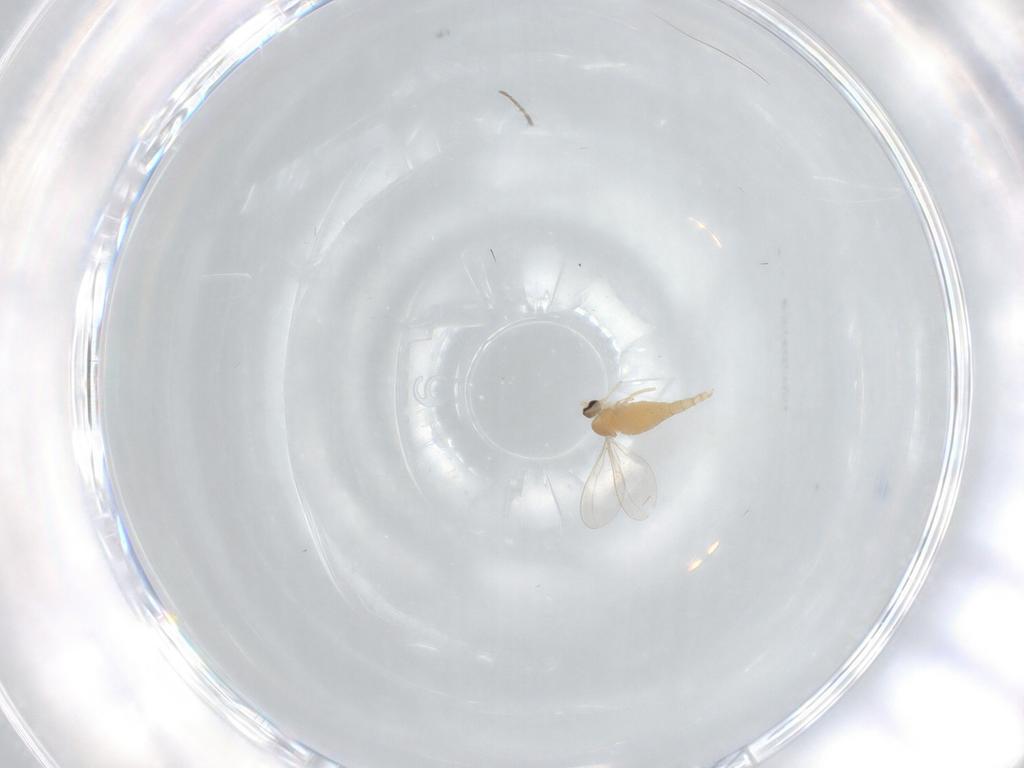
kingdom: Animalia
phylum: Arthropoda
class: Insecta
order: Diptera
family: Cecidomyiidae
